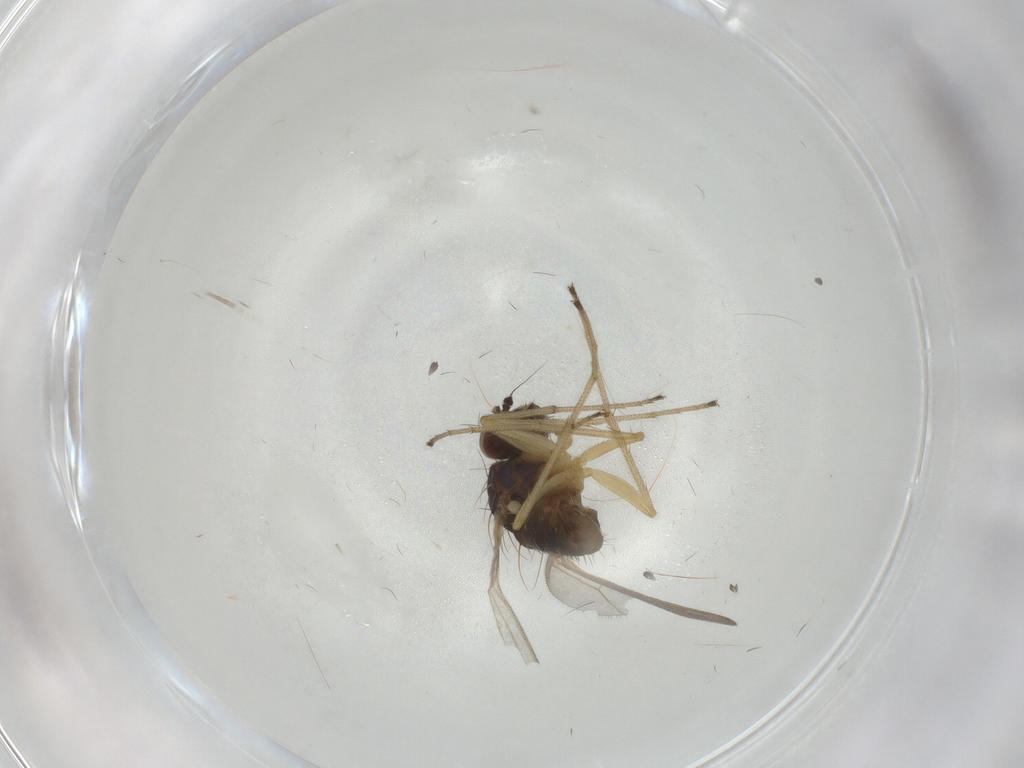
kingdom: Animalia
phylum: Arthropoda
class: Insecta
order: Diptera
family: Dolichopodidae
